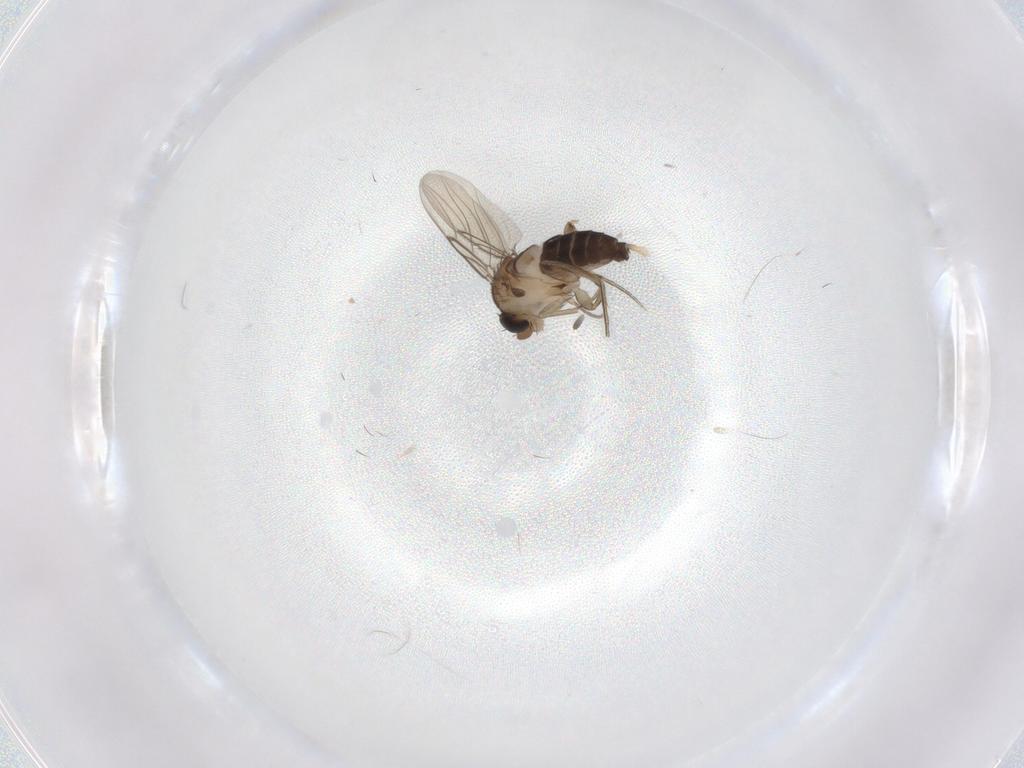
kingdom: Animalia
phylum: Arthropoda
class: Insecta
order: Diptera
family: Phoridae
